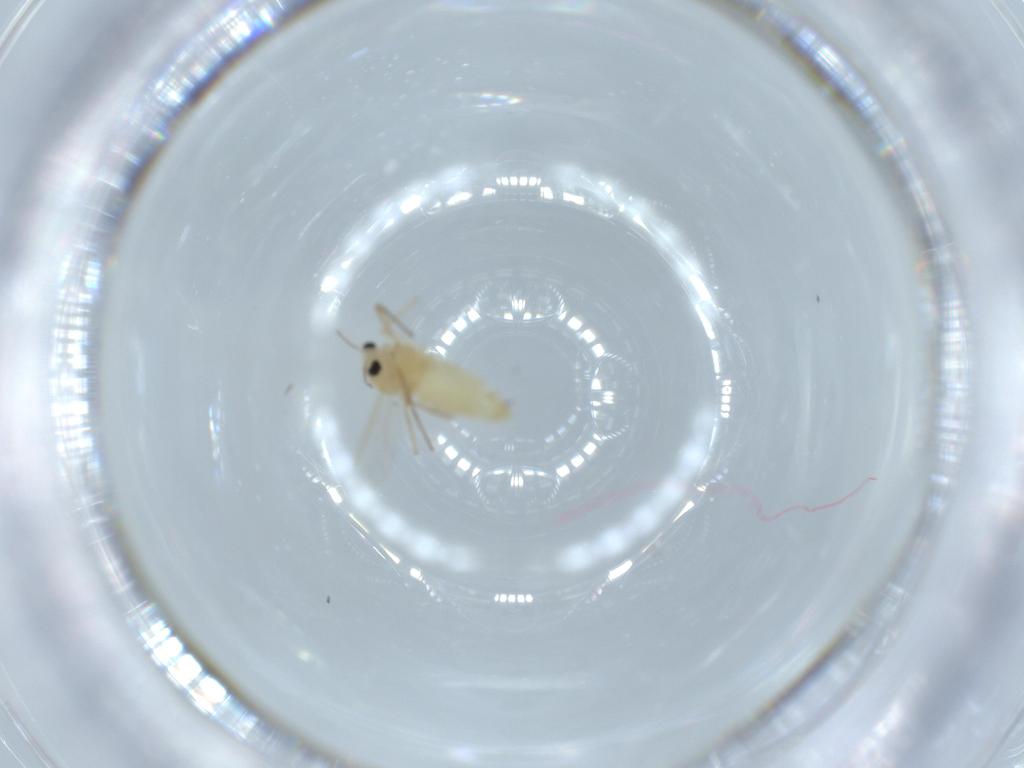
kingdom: Animalia
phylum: Arthropoda
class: Insecta
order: Diptera
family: Chironomidae
